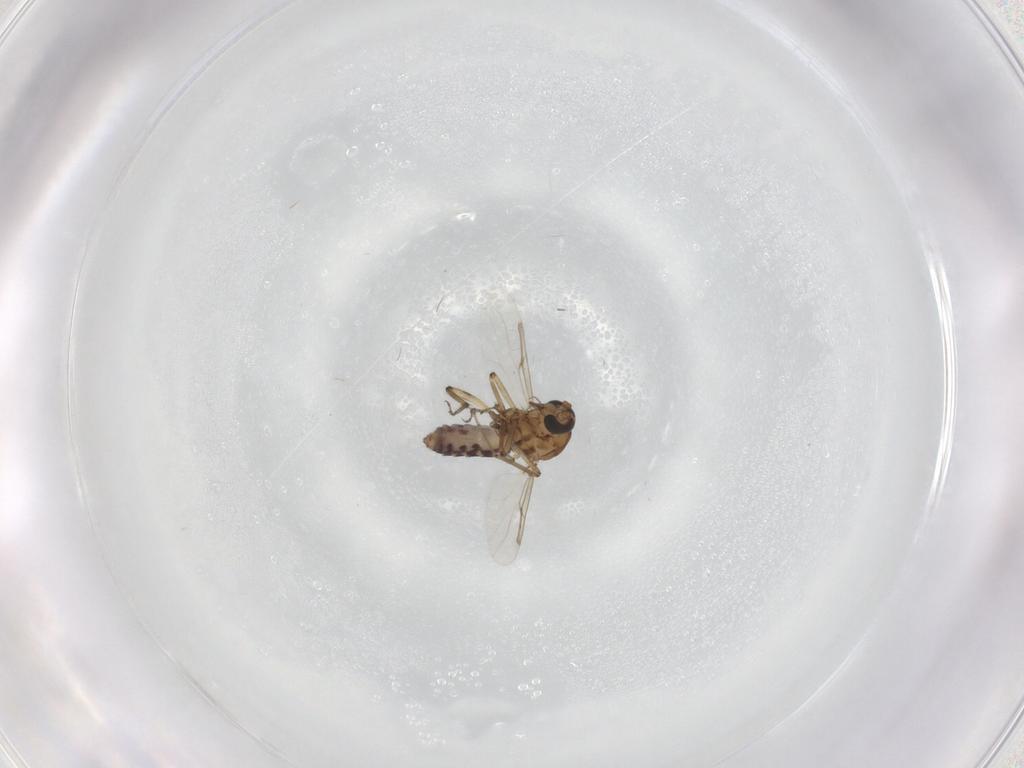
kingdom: Animalia
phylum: Arthropoda
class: Insecta
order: Diptera
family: Ceratopogonidae
